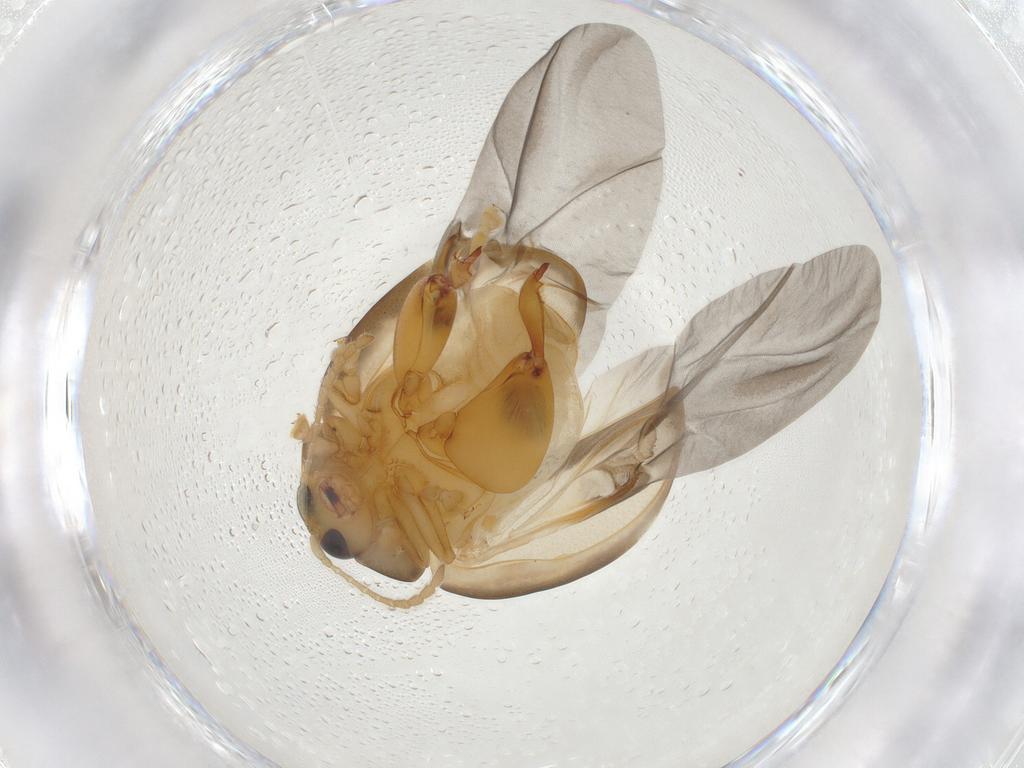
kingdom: Animalia
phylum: Arthropoda
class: Insecta
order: Coleoptera
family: Chrysomelidae
